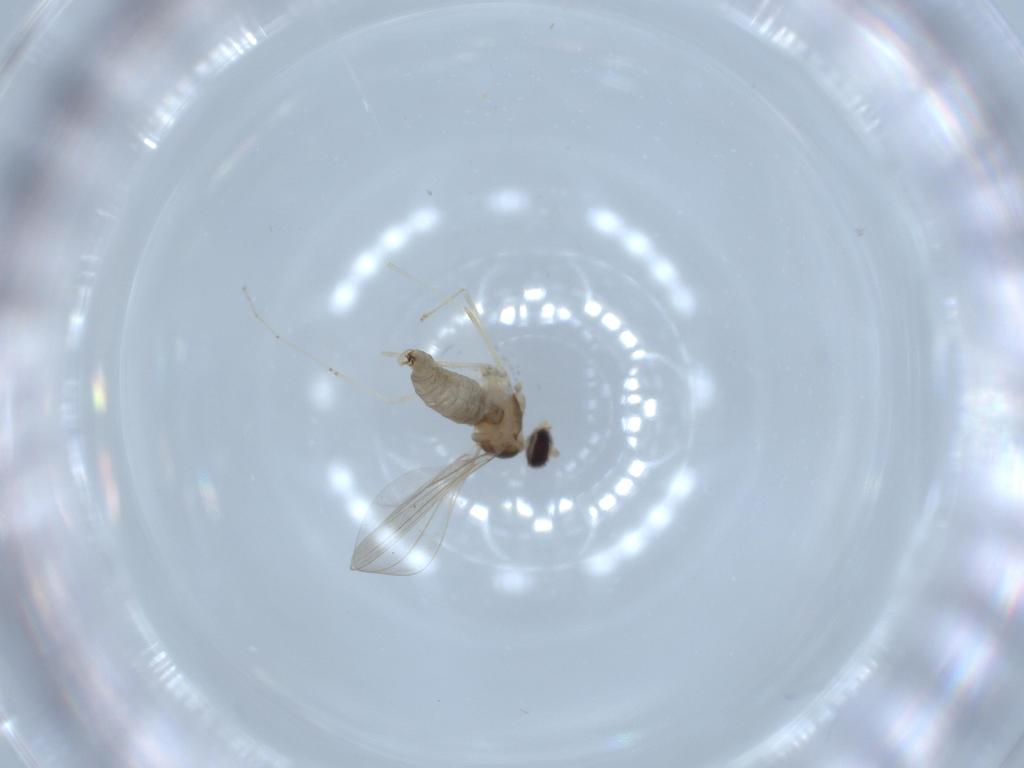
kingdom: Animalia
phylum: Arthropoda
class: Insecta
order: Diptera
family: Cecidomyiidae
